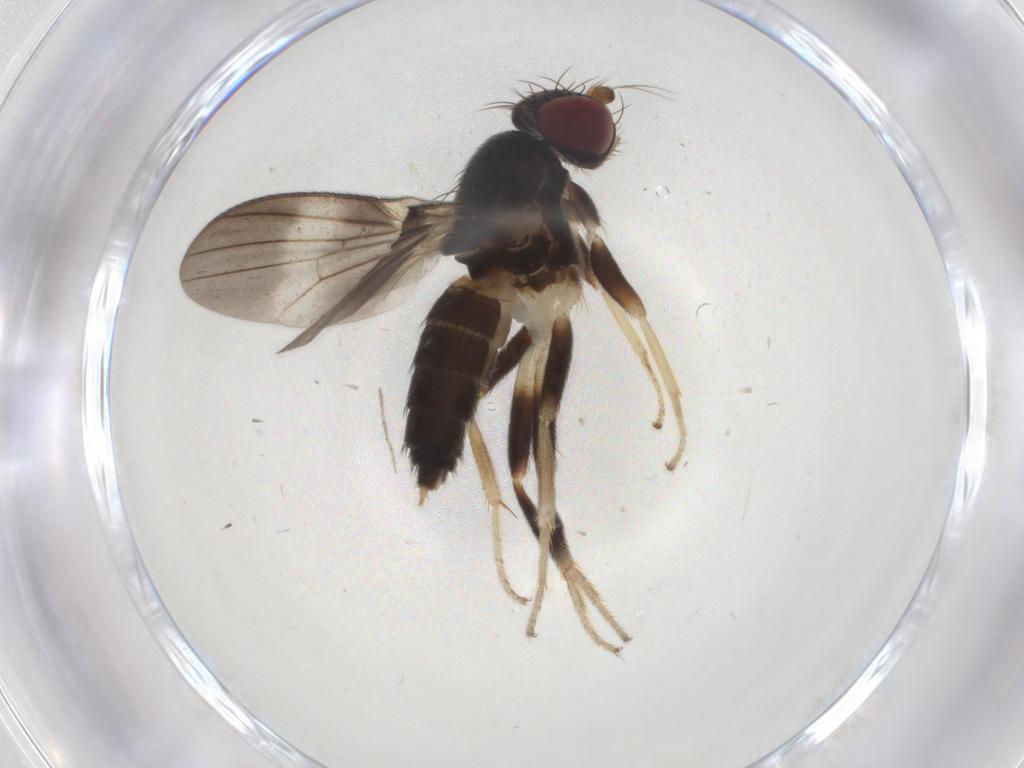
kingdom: Animalia
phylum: Arthropoda
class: Insecta
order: Diptera
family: Clusiidae
